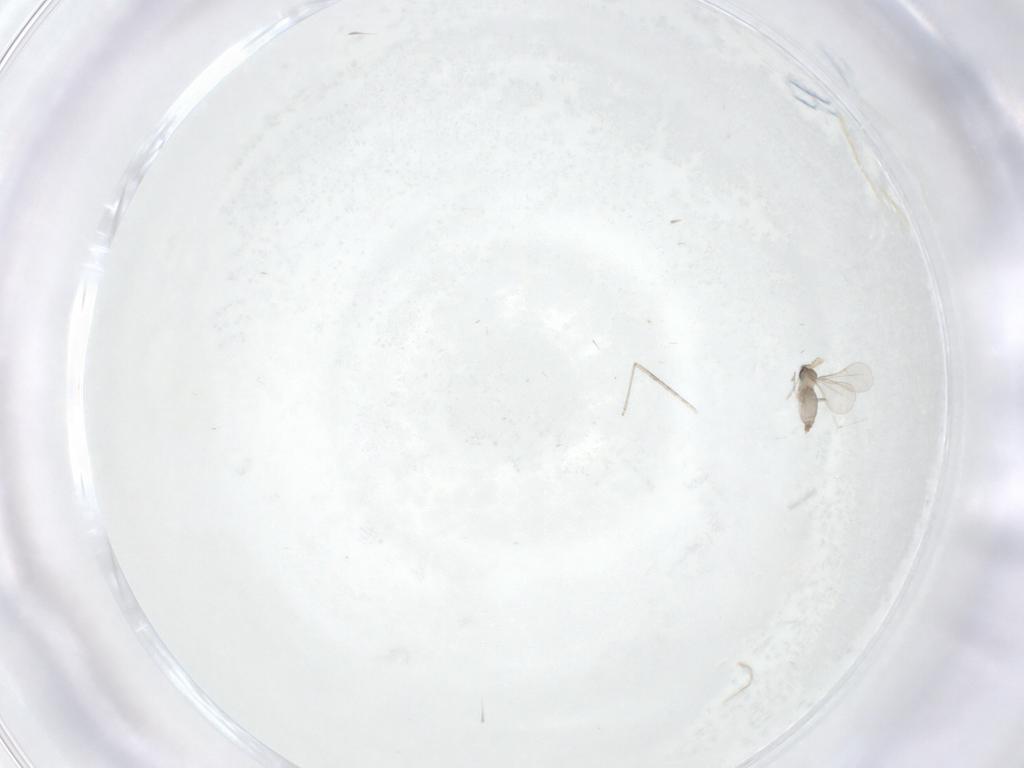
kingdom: Animalia
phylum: Arthropoda
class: Insecta
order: Diptera
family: Cecidomyiidae
